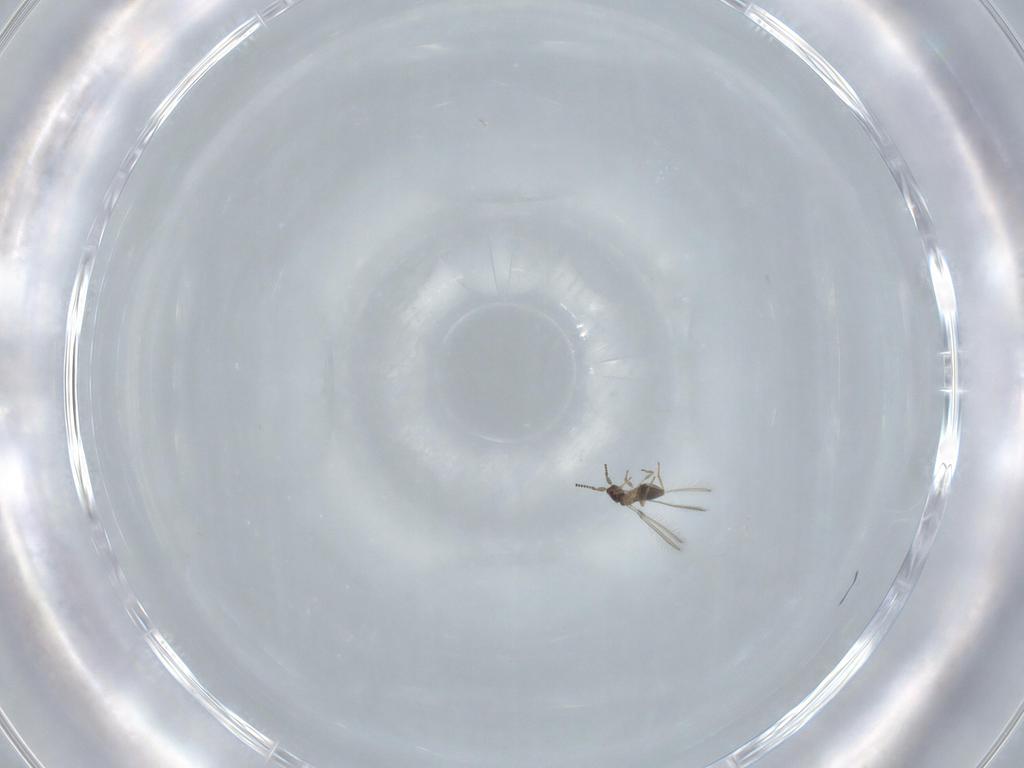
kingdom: Animalia
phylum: Arthropoda
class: Insecta
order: Hymenoptera
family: Mymaridae
